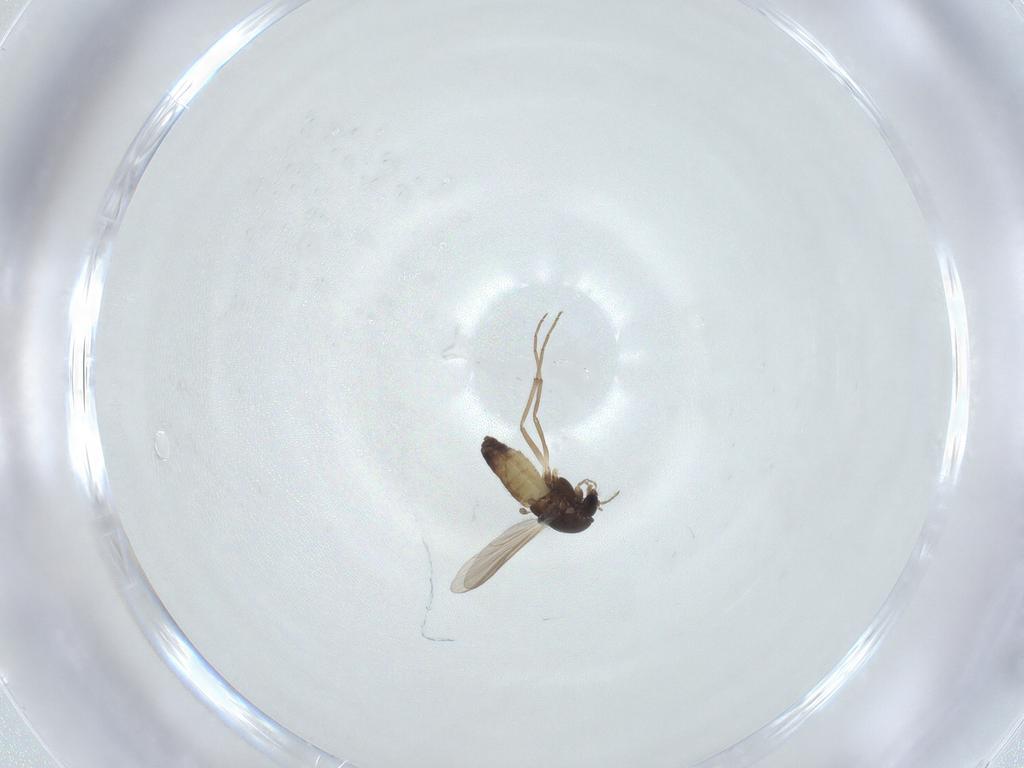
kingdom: Animalia
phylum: Arthropoda
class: Insecta
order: Diptera
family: Chironomidae
